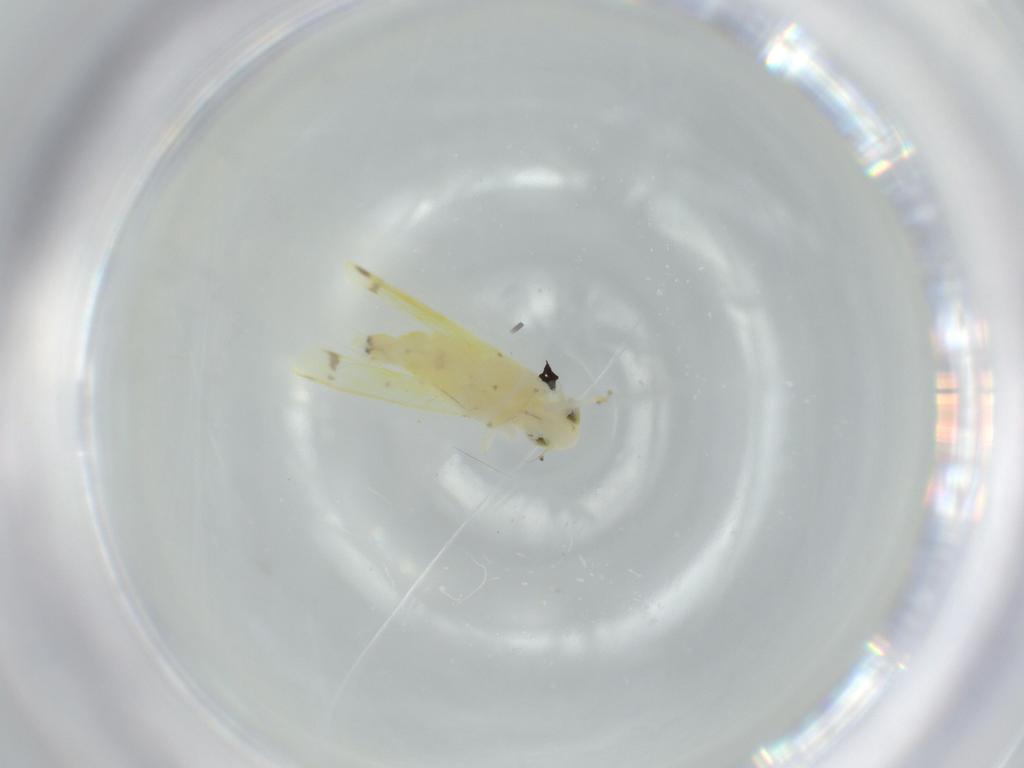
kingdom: Animalia
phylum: Arthropoda
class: Insecta
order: Hemiptera
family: Cicadellidae
